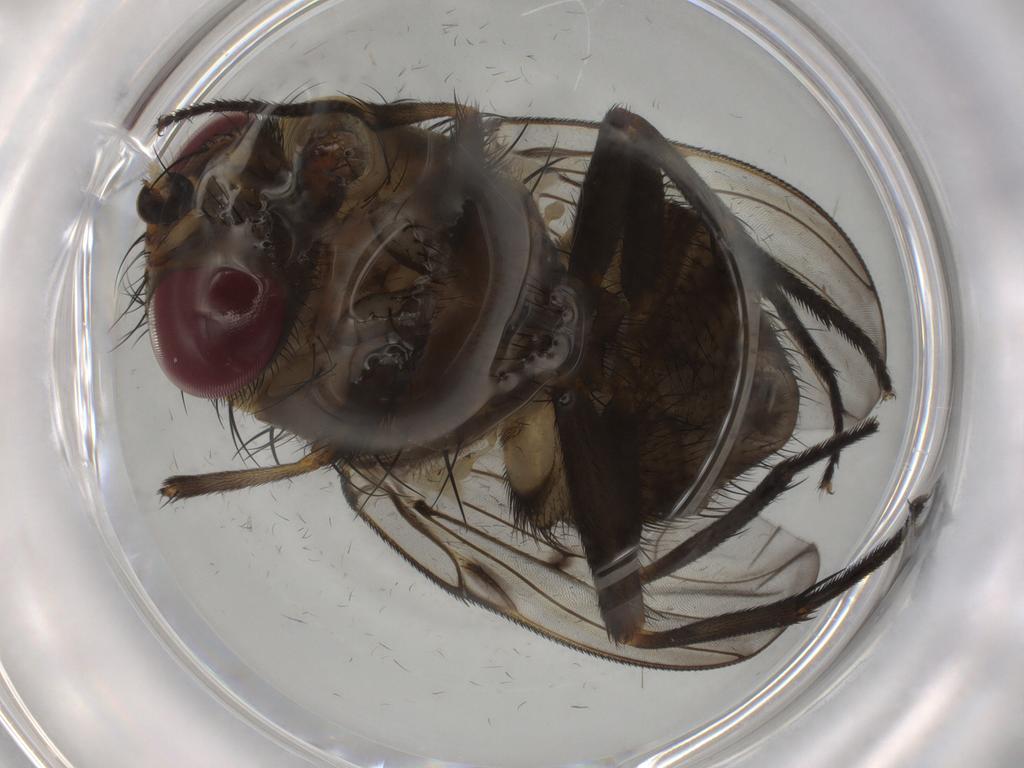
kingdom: Animalia
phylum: Arthropoda
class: Insecta
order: Diptera
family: Muscidae
